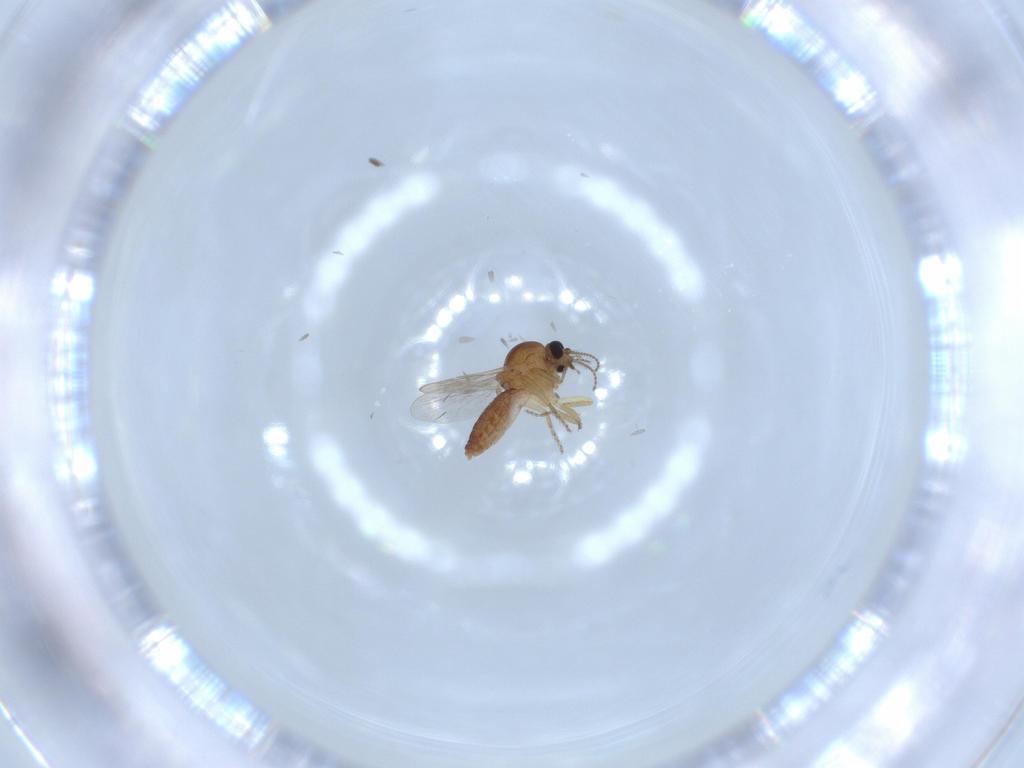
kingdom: Animalia
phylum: Arthropoda
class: Insecta
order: Diptera
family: Ceratopogonidae
